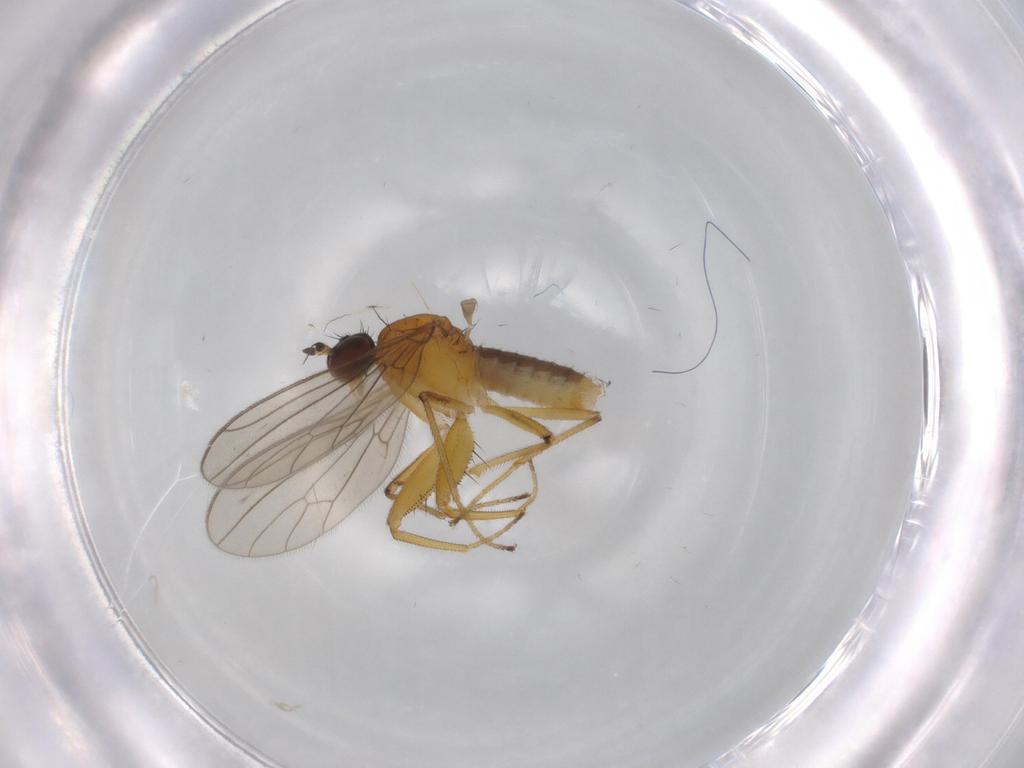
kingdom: Animalia
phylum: Arthropoda
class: Insecta
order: Diptera
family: Empididae
